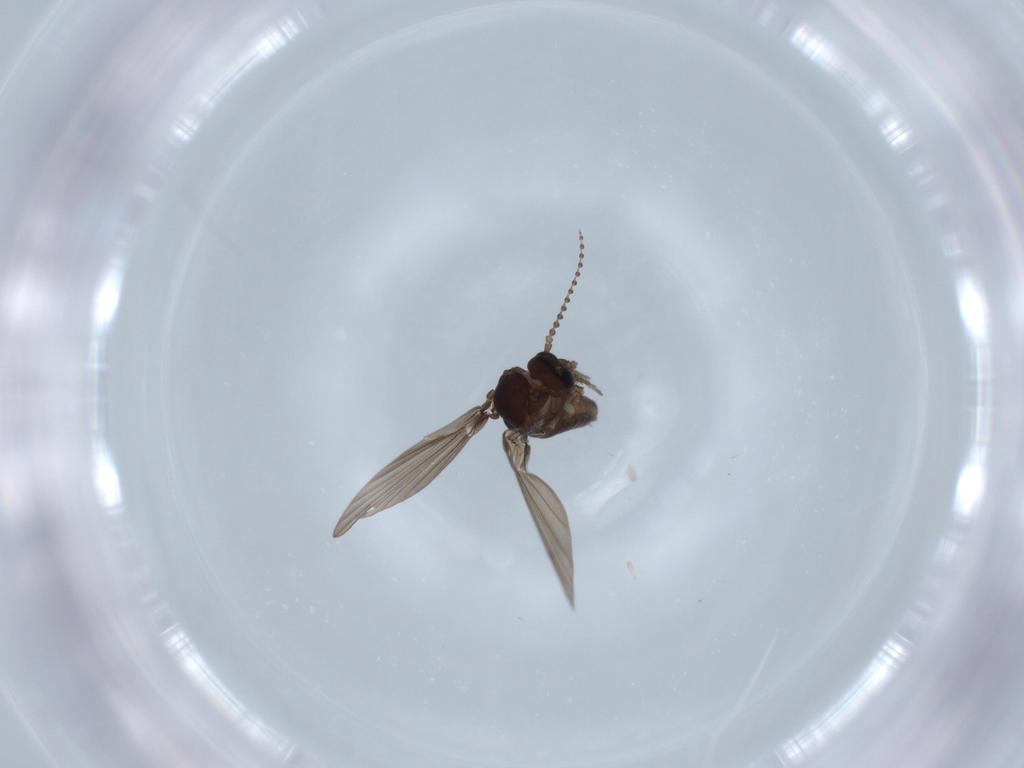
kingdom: Animalia
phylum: Arthropoda
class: Insecta
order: Diptera
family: Psychodidae
